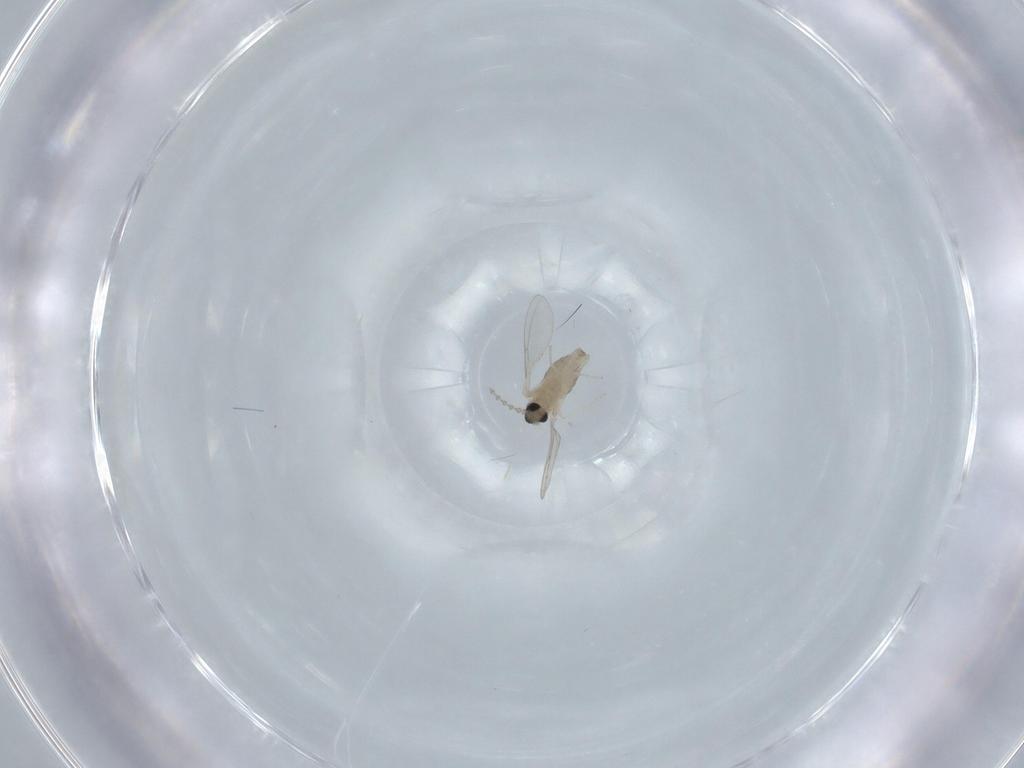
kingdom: Animalia
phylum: Arthropoda
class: Insecta
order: Diptera
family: Cecidomyiidae
